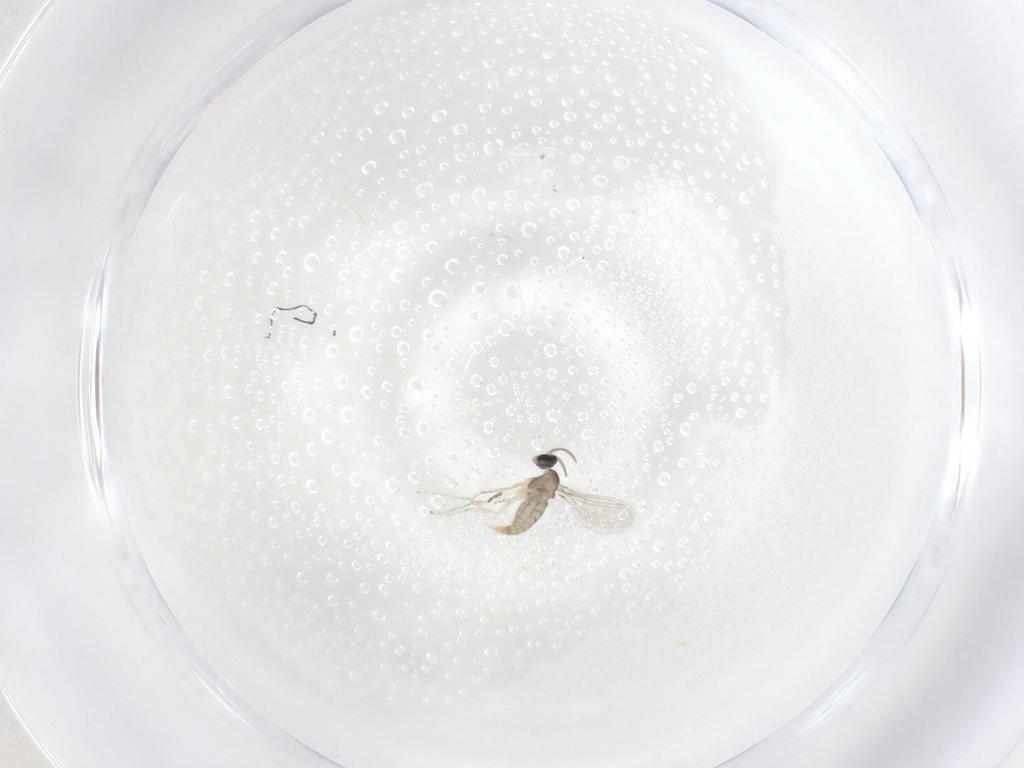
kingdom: Animalia
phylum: Arthropoda
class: Insecta
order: Diptera
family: Cecidomyiidae
